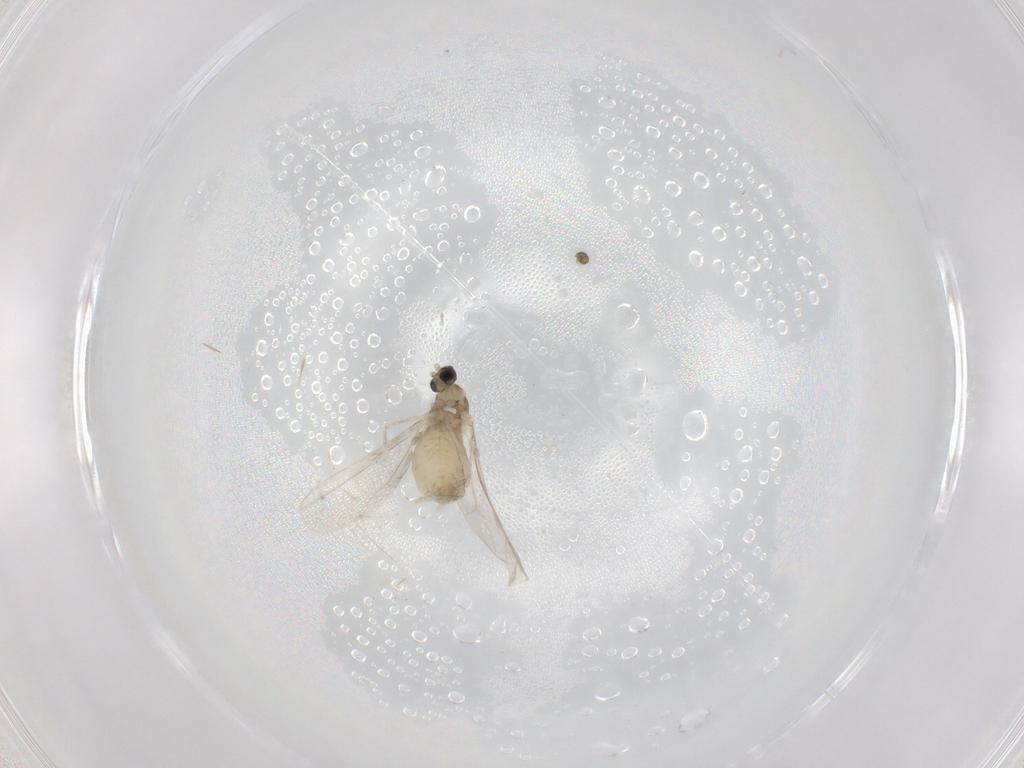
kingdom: Animalia
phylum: Arthropoda
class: Insecta
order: Diptera
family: Cecidomyiidae
